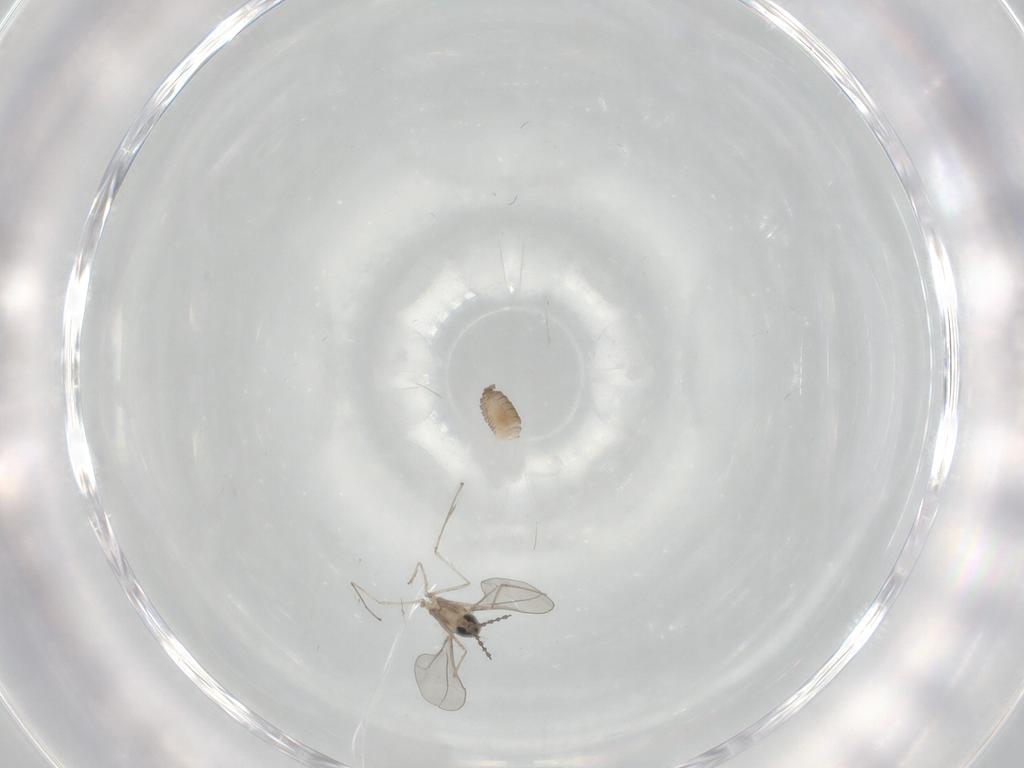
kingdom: Animalia
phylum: Arthropoda
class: Insecta
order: Diptera
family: Cecidomyiidae
